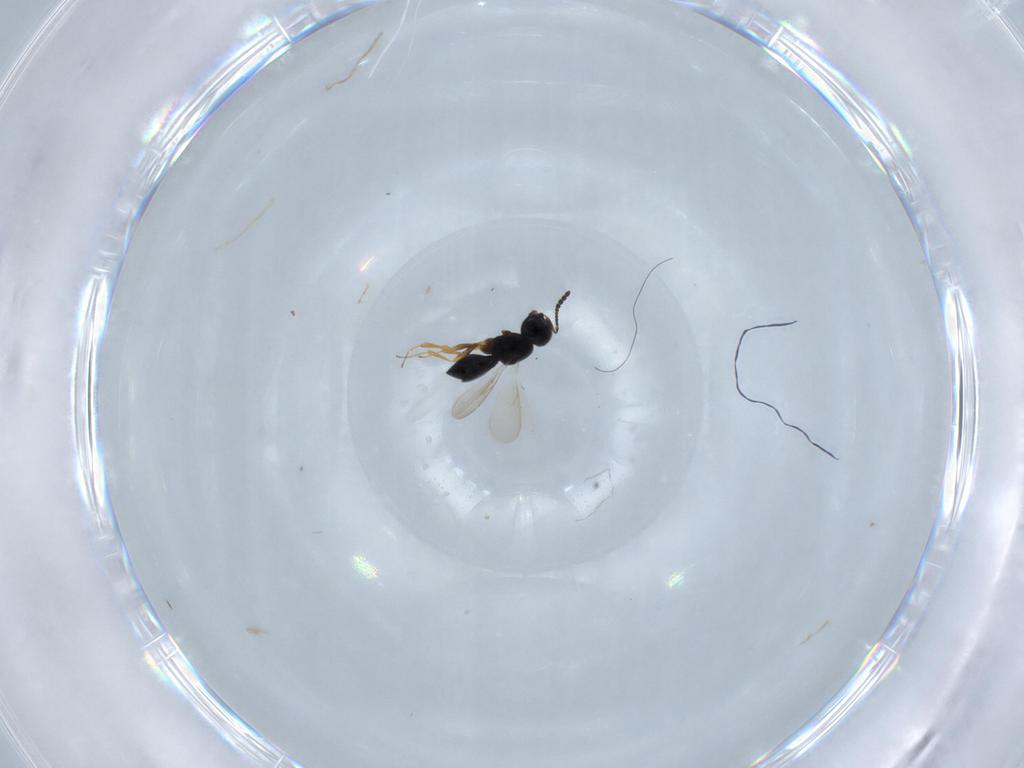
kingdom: Animalia
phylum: Arthropoda
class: Insecta
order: Hymenoptera
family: Scelionidae
